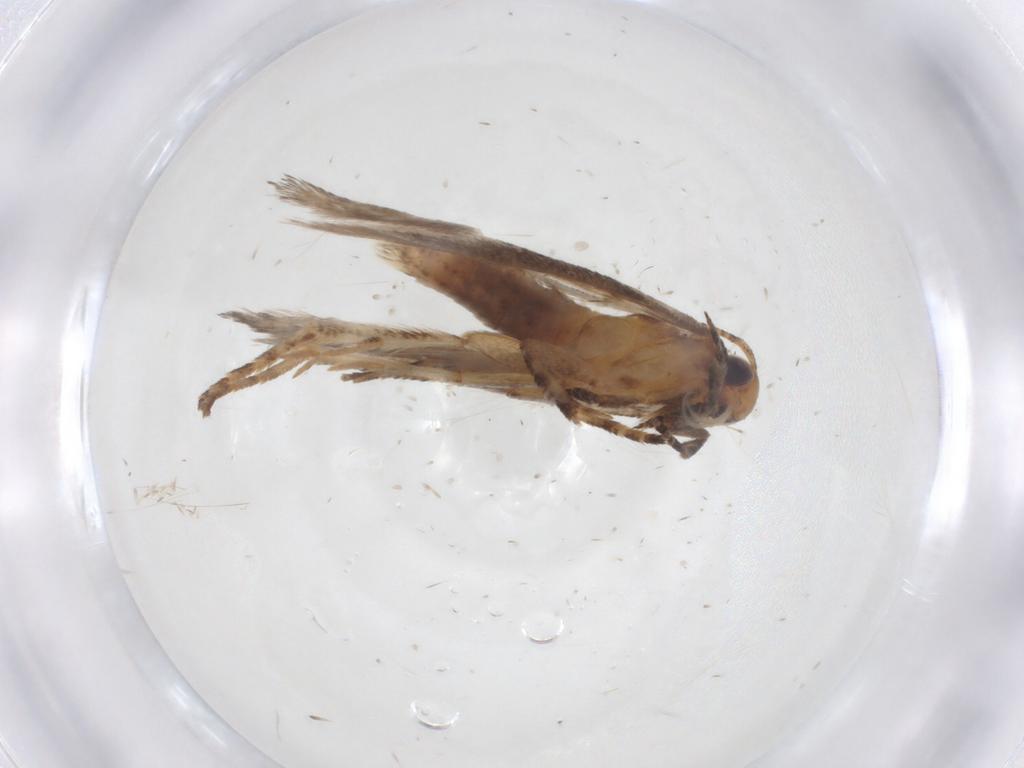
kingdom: Animalia
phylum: Arthropoda
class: Insecta
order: Lepidoptera
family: Gelechiidae
